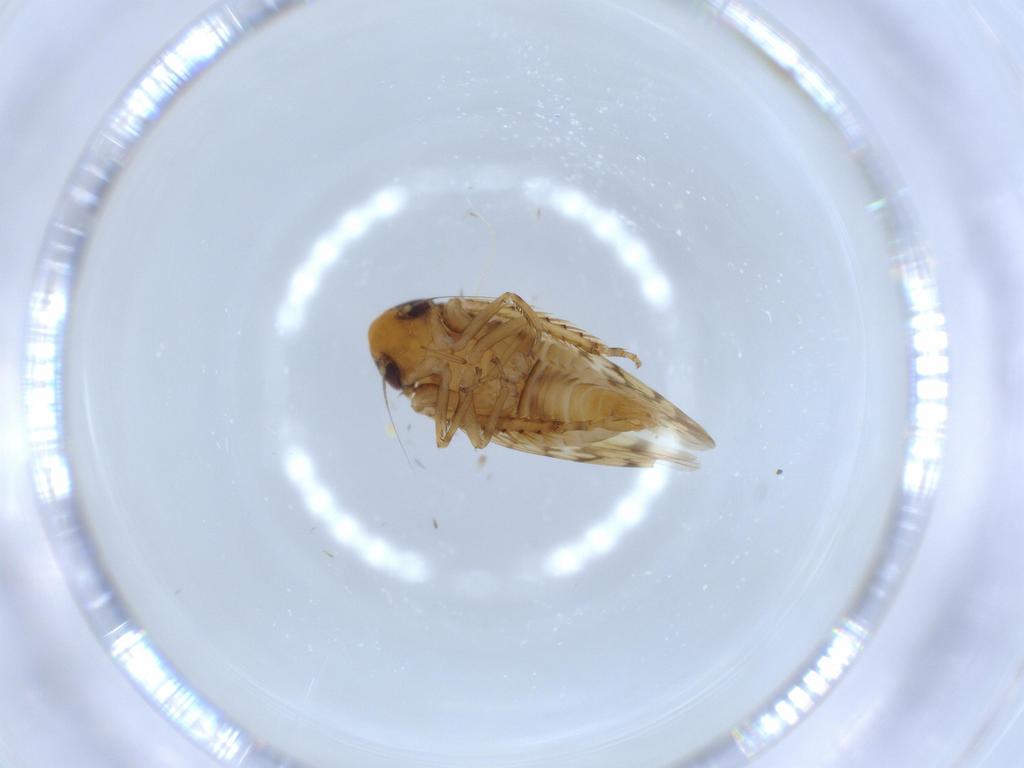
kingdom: Animalia
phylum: Arthropoda
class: Insecta
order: Hemiptera
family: Cicadellidae
